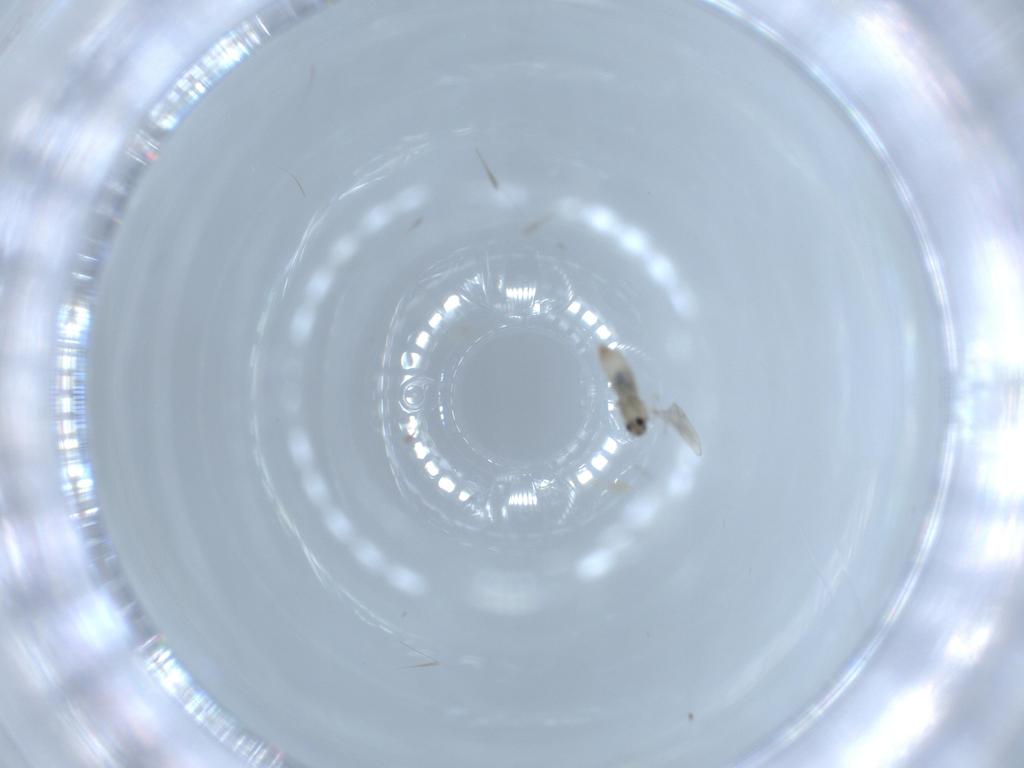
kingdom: Animalia
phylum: Arthropoda
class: Insecta
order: Diptera
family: Cecidomyiidae
